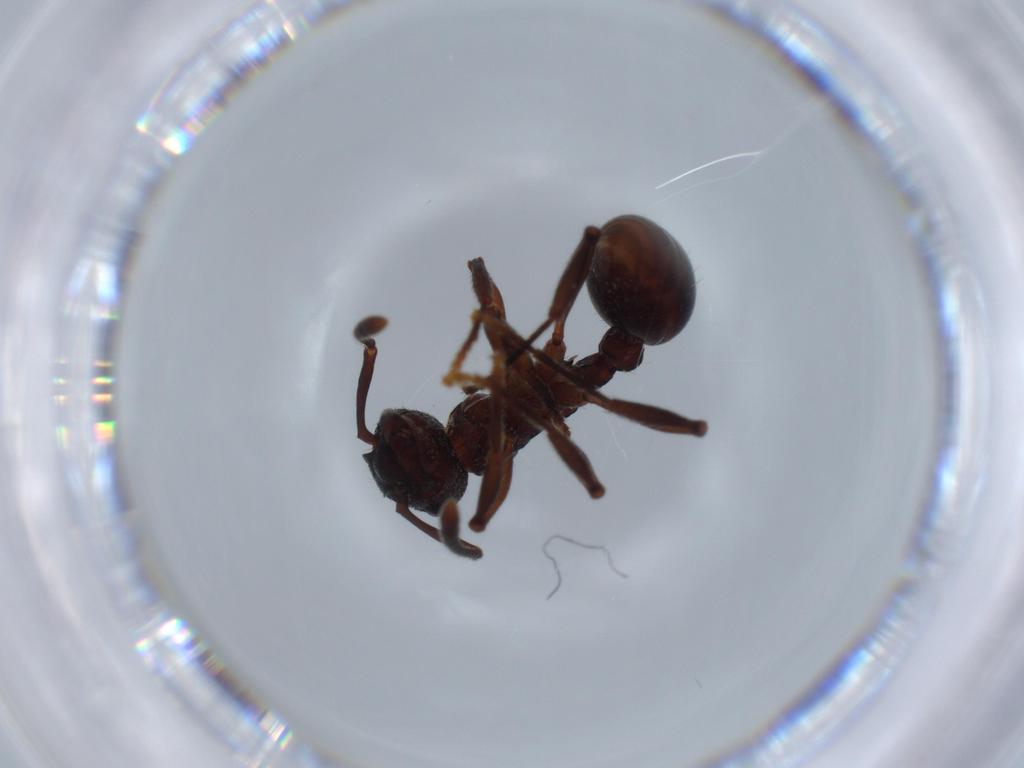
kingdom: Animalia
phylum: Arthropoda
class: Insecta
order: Hymenoptera
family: Formicidae
